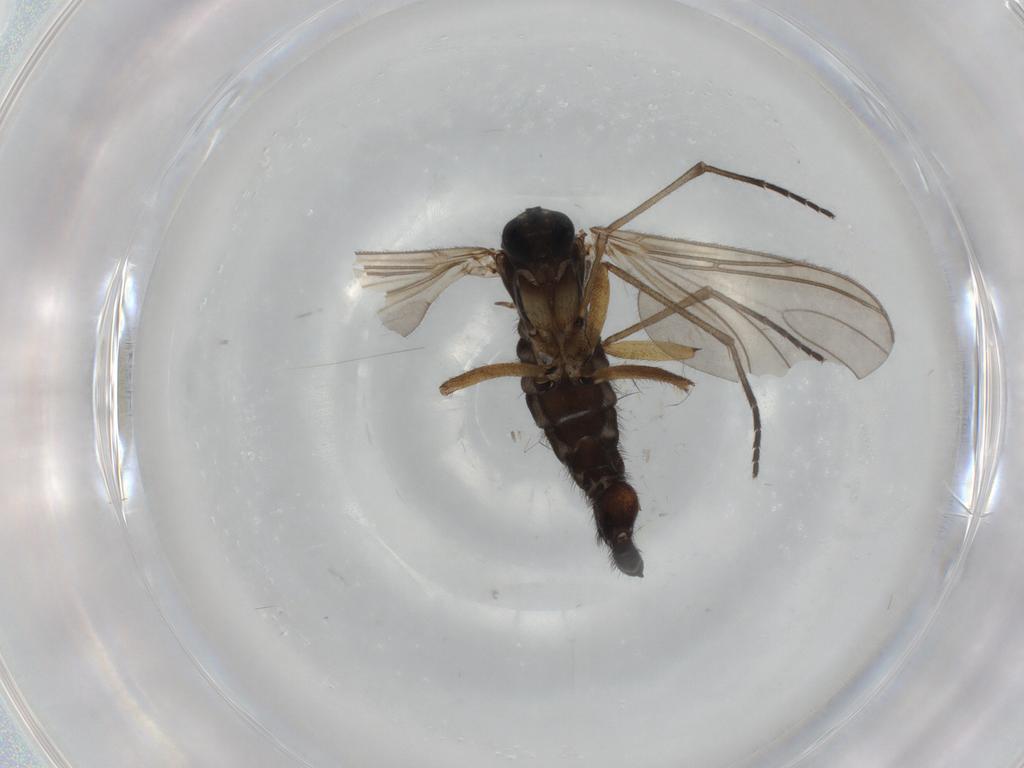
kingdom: Animalia
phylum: Arthropoda
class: Insecta
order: Diptera
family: Sciaridae
